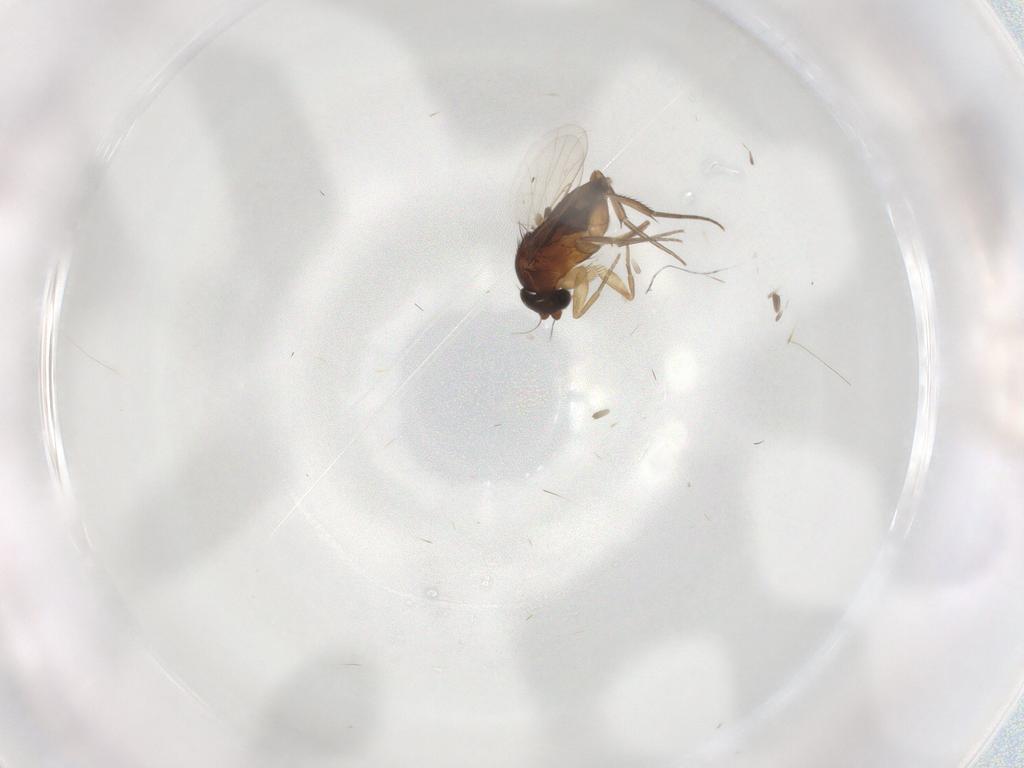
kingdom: Animalia
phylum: Arthropoda
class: Insecta
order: Diptera
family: Phoridae
